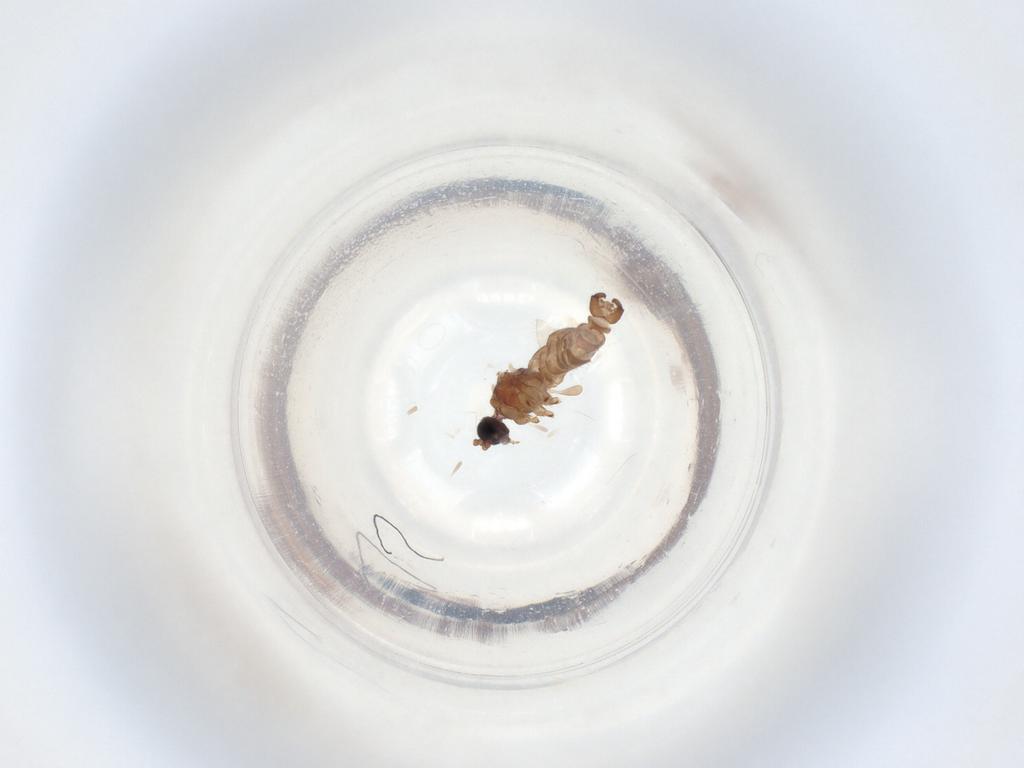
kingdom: Animalia
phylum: Arthropoda
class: Insecta
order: Diptera
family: Sciaridae
